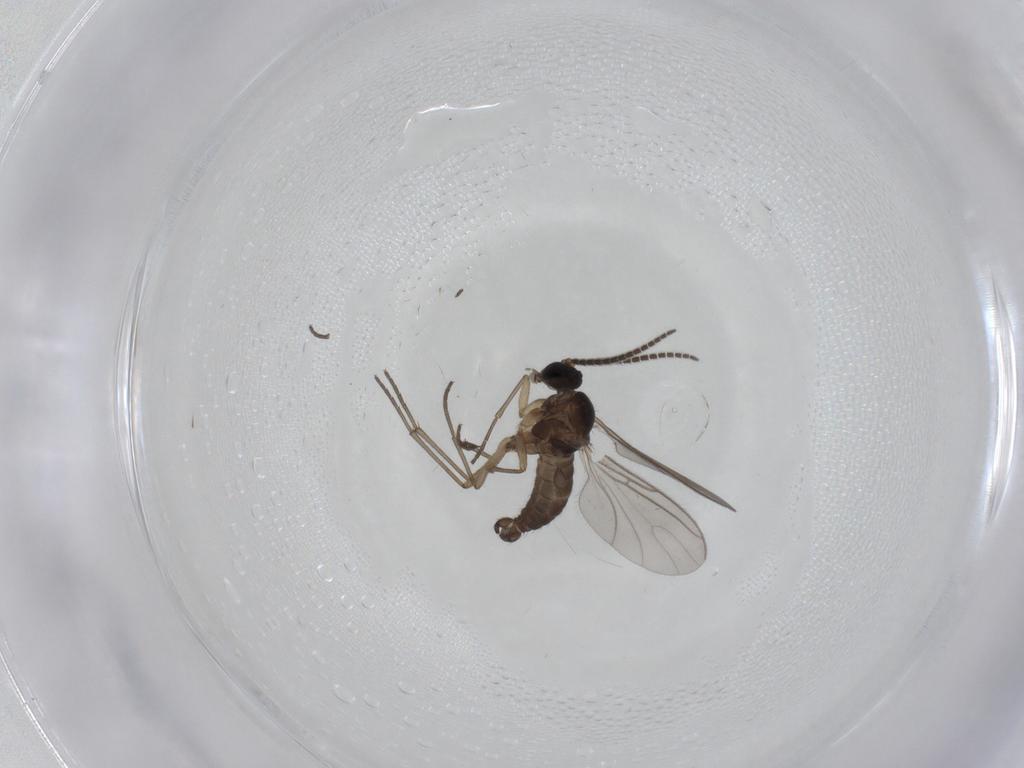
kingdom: Animalia
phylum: Arthropoda
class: Insecta
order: Diptera
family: Sciaridae
